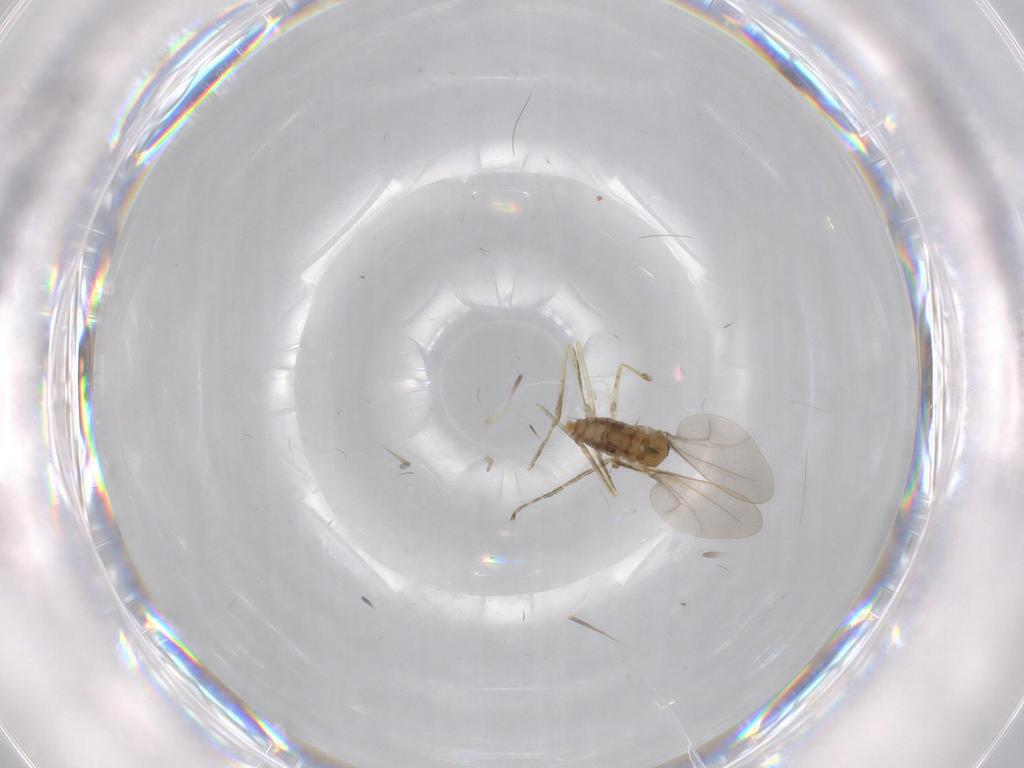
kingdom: Animalia
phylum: Arthropoda
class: Insecta
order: Diptera
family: Cecidomyiidae
